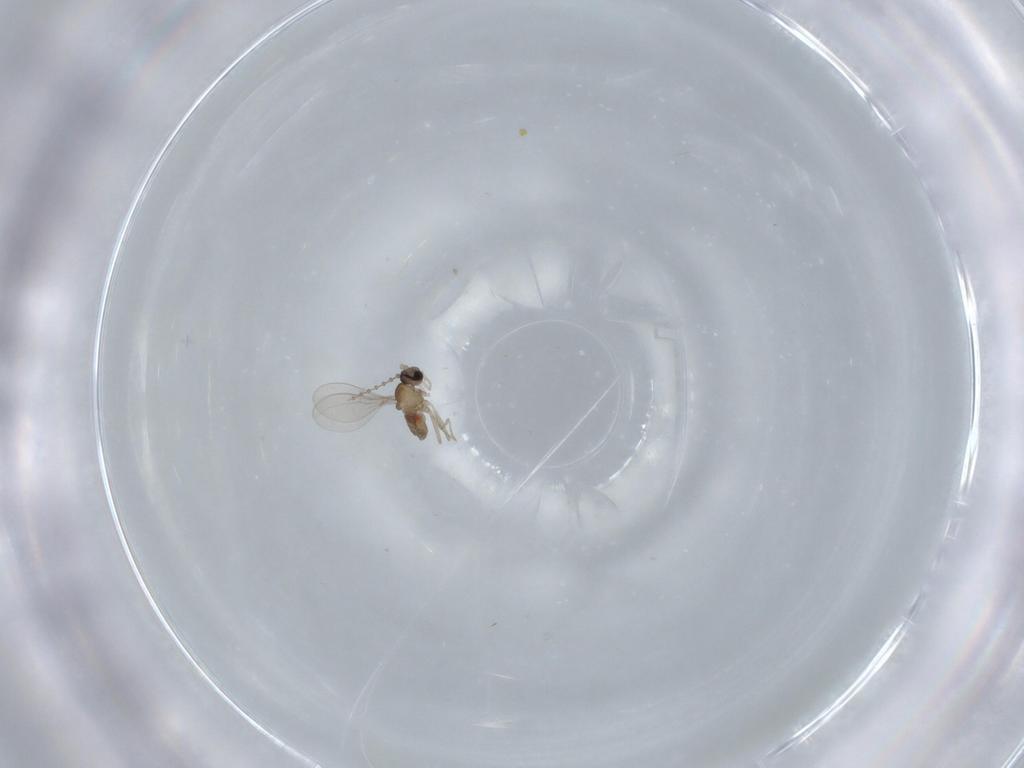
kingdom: Animalia
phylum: Arthropoda
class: Insecta
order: Diptera
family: Cecidomyiidae
